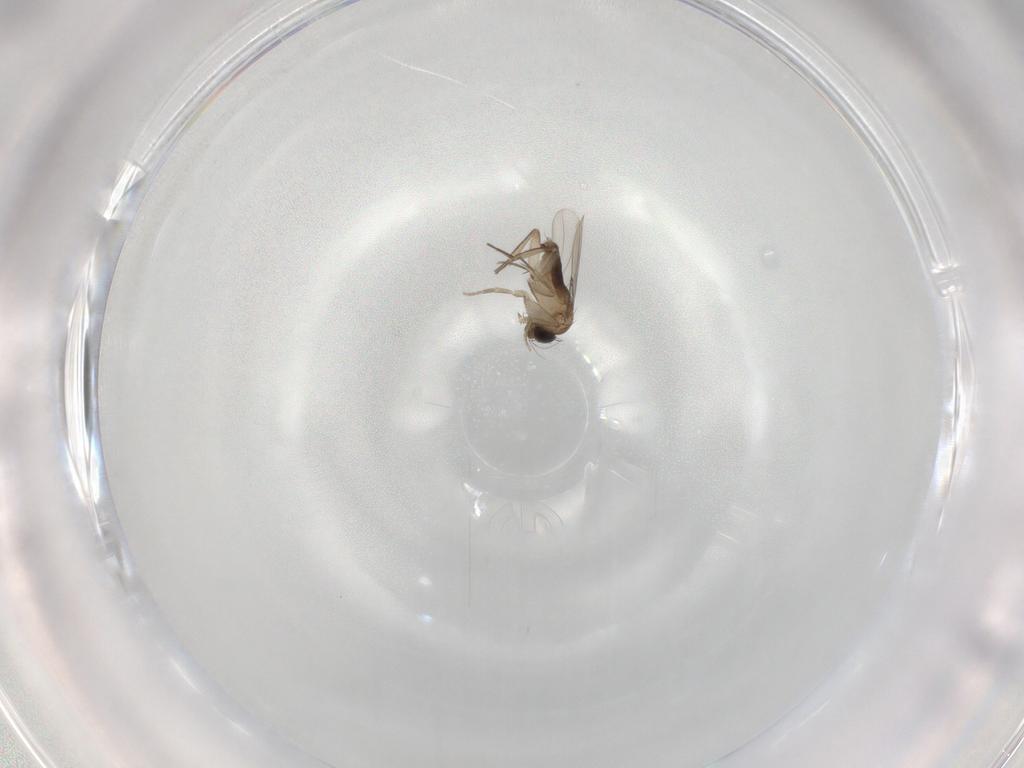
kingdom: Animalia
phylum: Arthropoda
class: Insecta
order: Diptera
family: Phoridae
